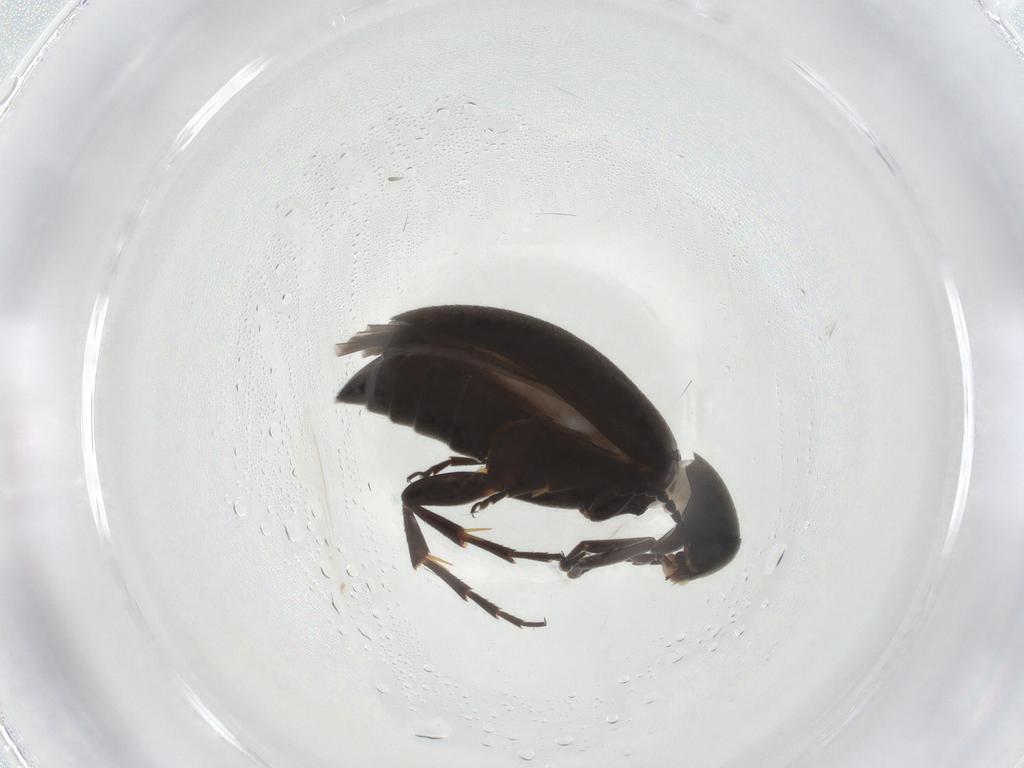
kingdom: Animalia
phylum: Arthropoda
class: Insecta
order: Coleoptera
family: Scraptiidae
